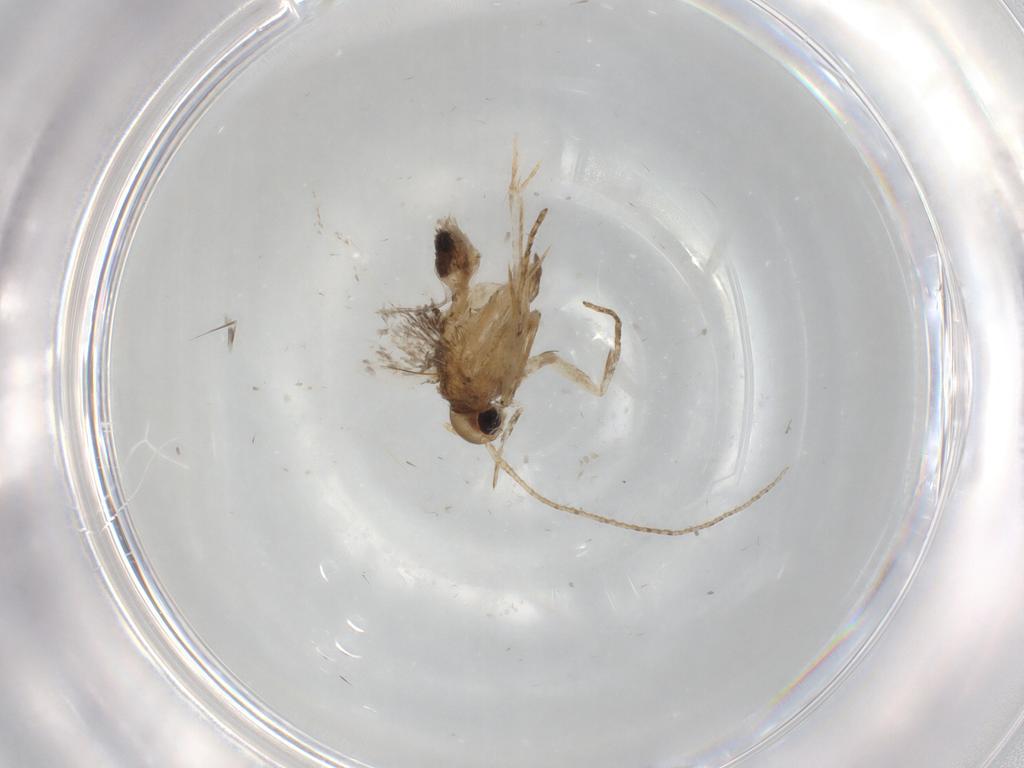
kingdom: Animalia
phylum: Arthropoda
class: Insecta
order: Lepidoptera
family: Gelechiidae
